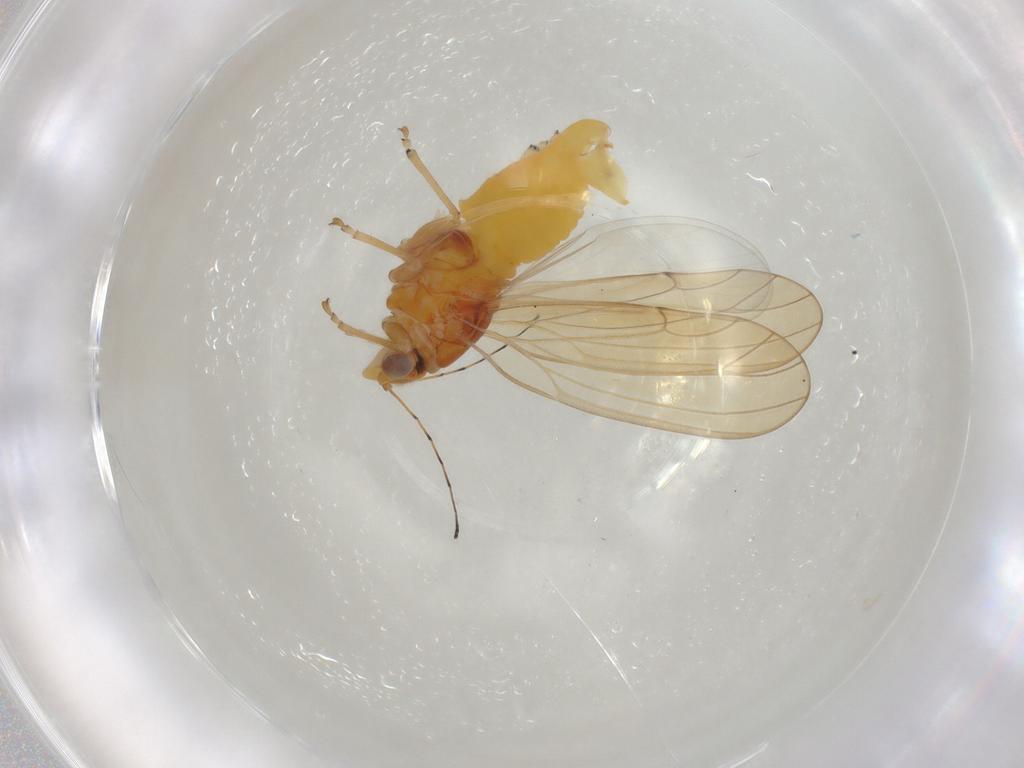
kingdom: Animalia
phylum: Arthropoda
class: Insecta
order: Hemiptera
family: Psylloidea_incertae_sedis
